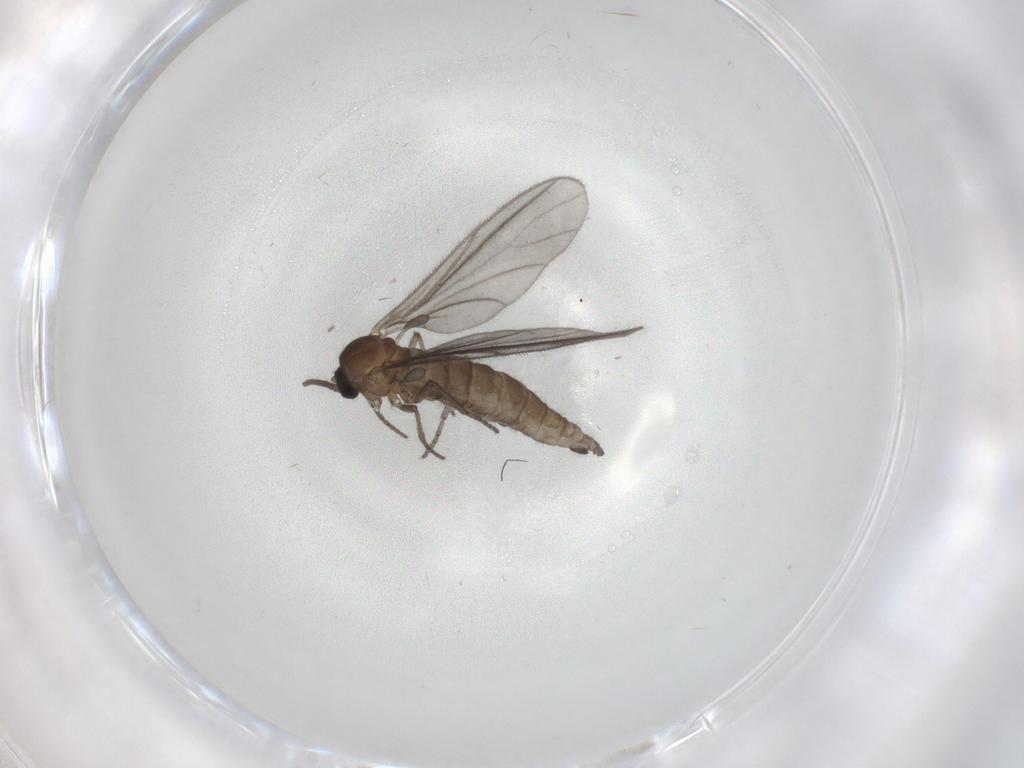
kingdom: Animalia
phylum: Arthropoda
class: Insecta
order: Diptera
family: Sciaridae
